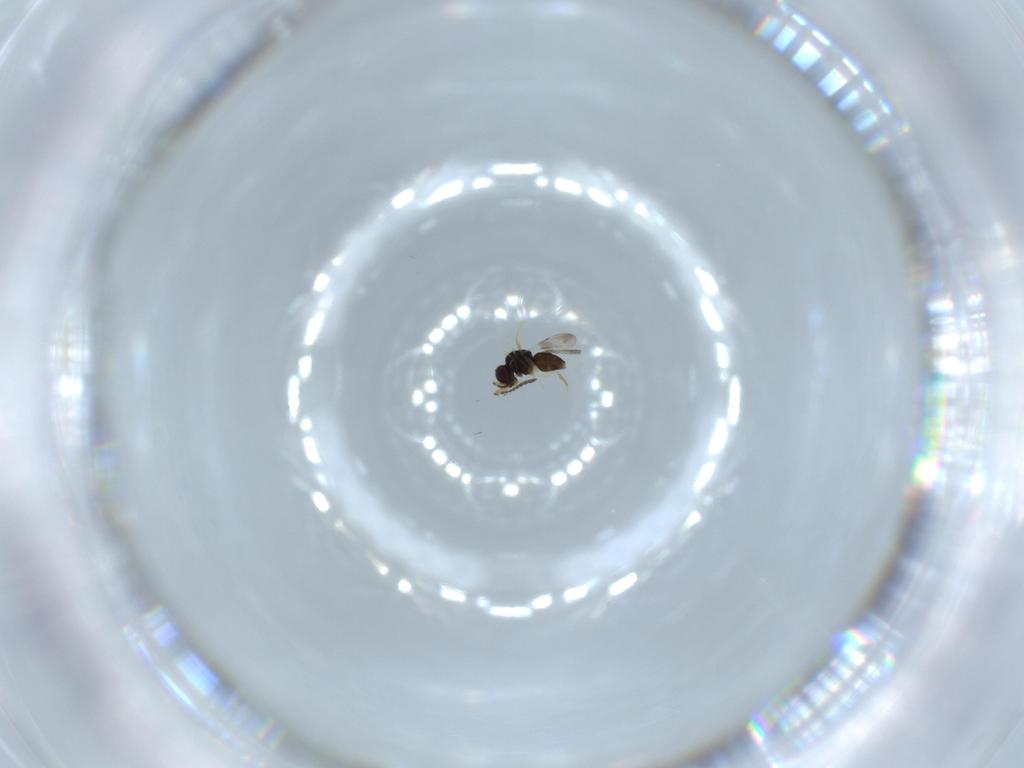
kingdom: Animalia
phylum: Arthropoda
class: Insecta
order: Hymenoptera
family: Ceraphronidae
